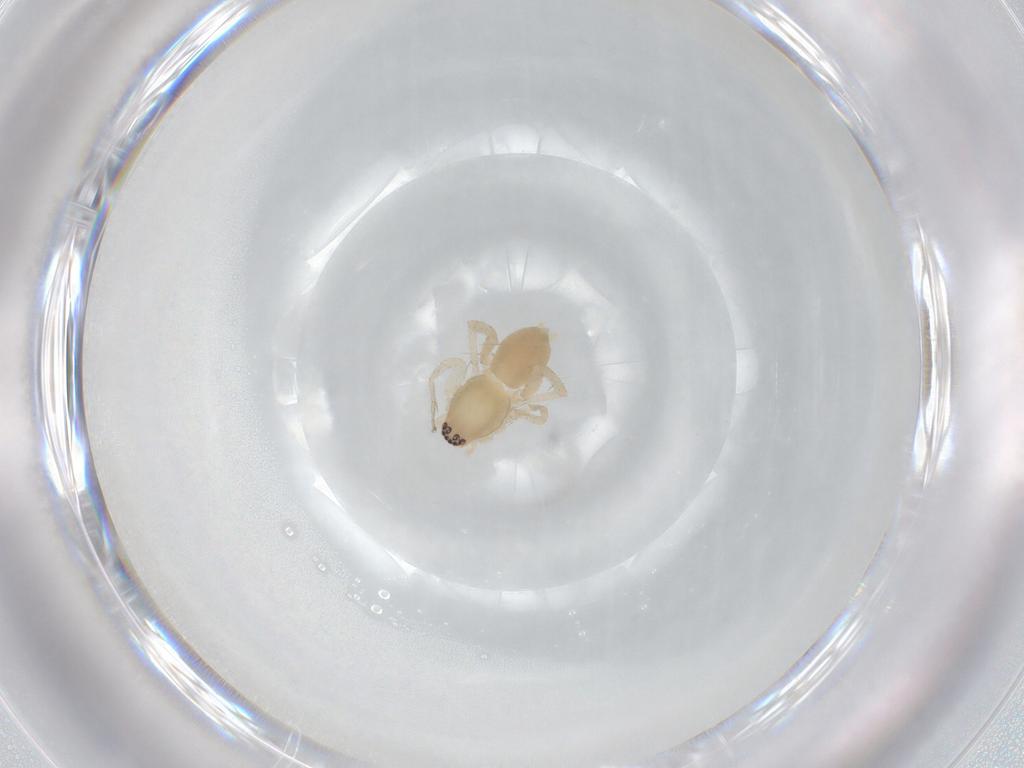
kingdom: Animalia
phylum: Arthropoda
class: Arachnida
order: Araneae
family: Anyphaenidae
